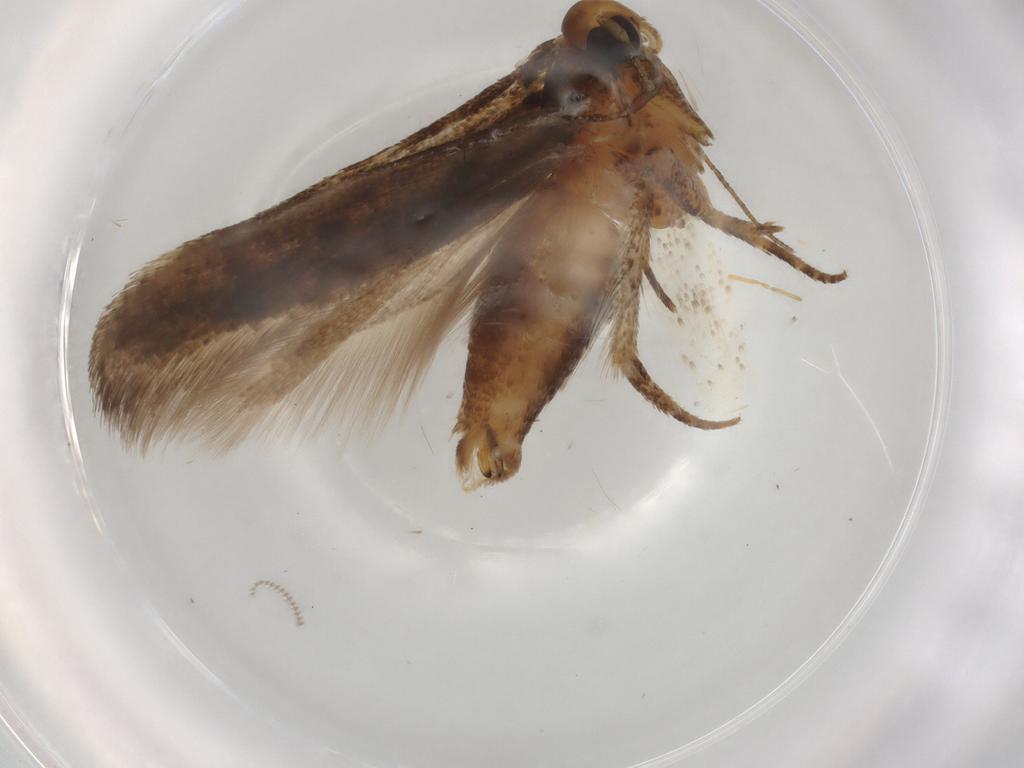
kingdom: Animalia
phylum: Arthropoda
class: Insecta
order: Lepidoptera
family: Gelechiidae
